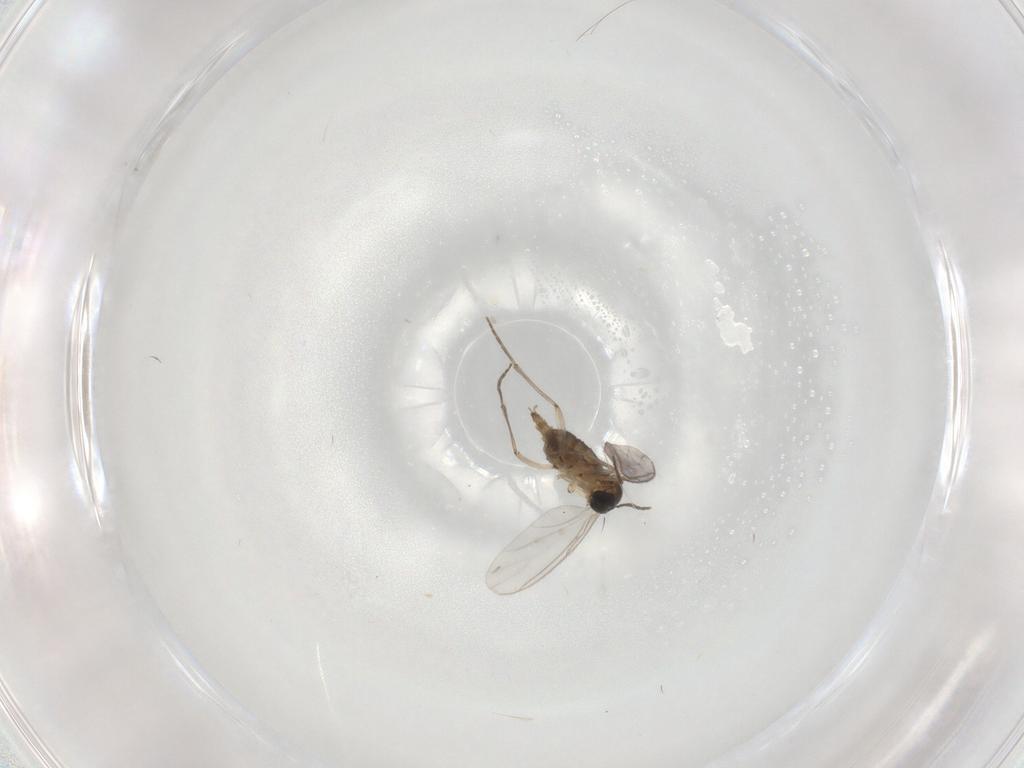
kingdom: Animalia
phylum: Arthropoda
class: Insecta
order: Diptera
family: Sciaridae
